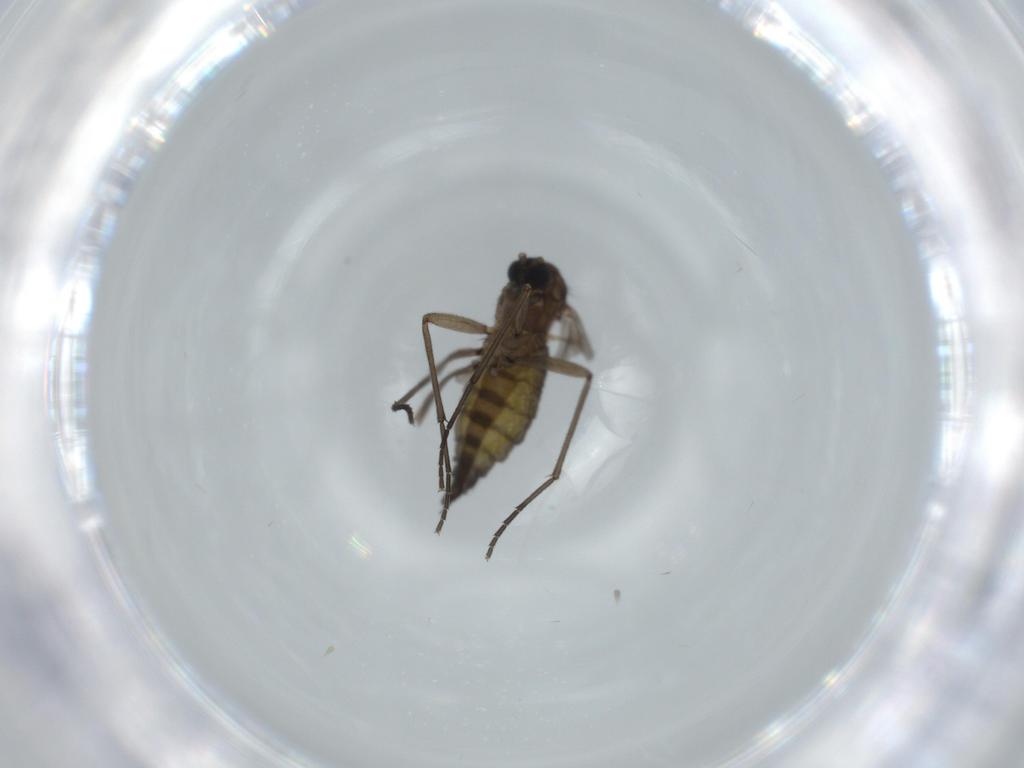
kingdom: Animalia
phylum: Arthropoda
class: Insecta
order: Diptera
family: Sciaridae
